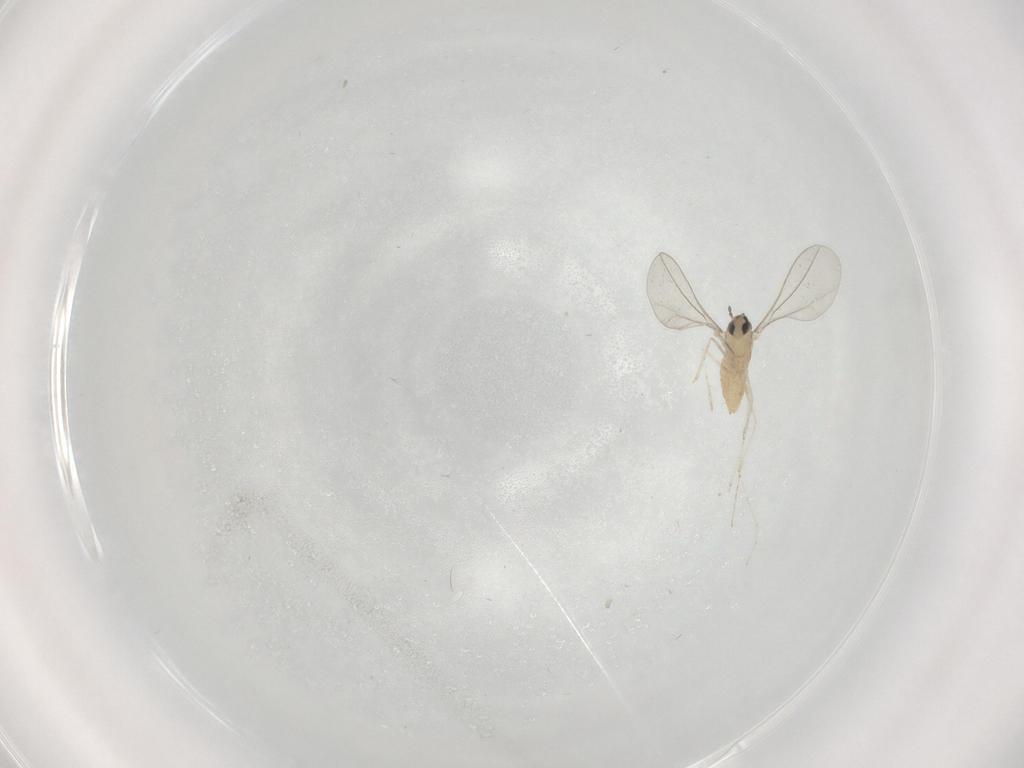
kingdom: Animalia
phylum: Arthropoda
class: Insecta
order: Diptera
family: Cecidomyiidae
